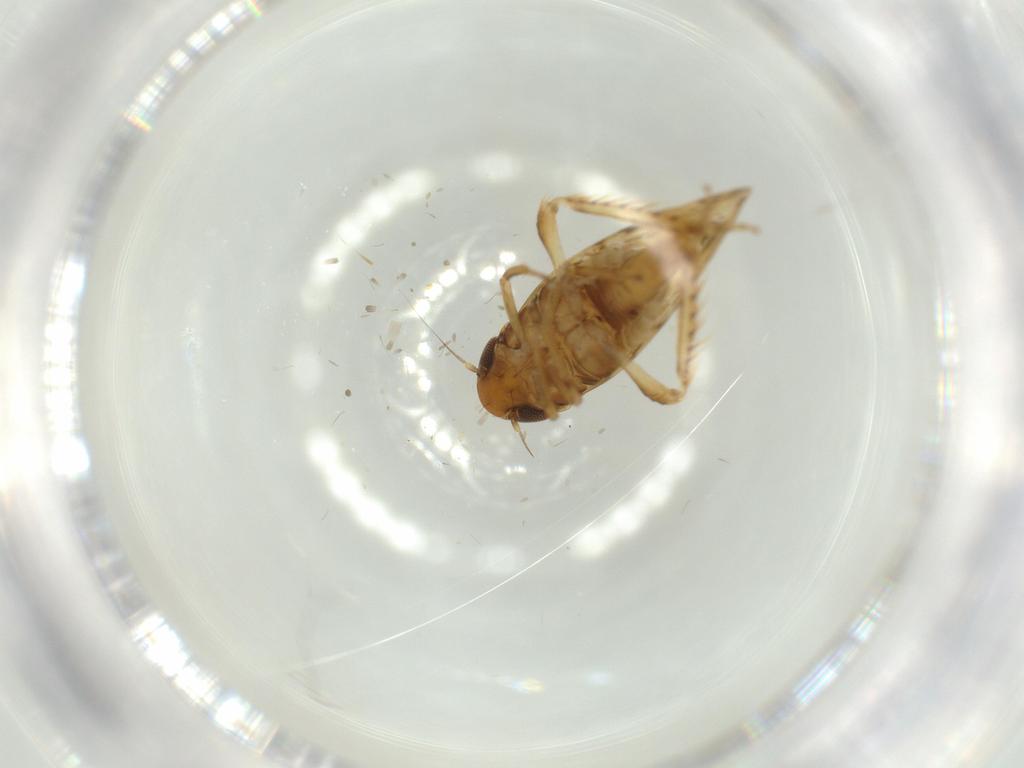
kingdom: Animalia
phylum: Arthropoda
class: Insecta
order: Hemiptera
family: Cicadellidae
